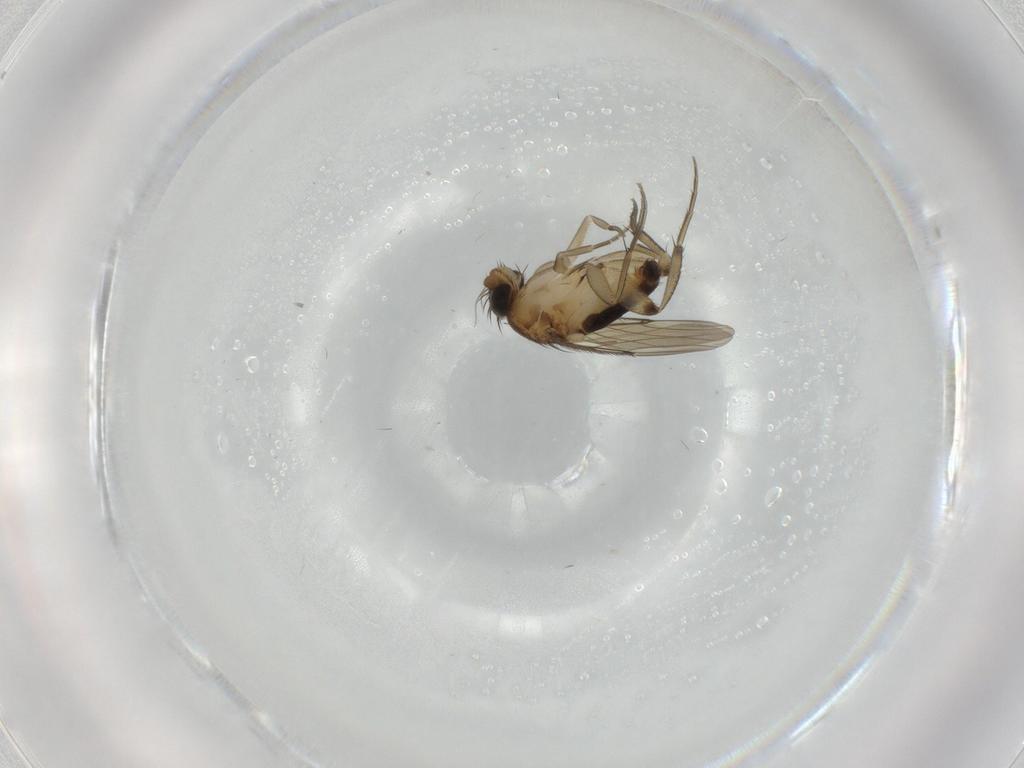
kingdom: Animalia
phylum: Arthropoda
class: Insecta
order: Diptera
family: Phoridae
